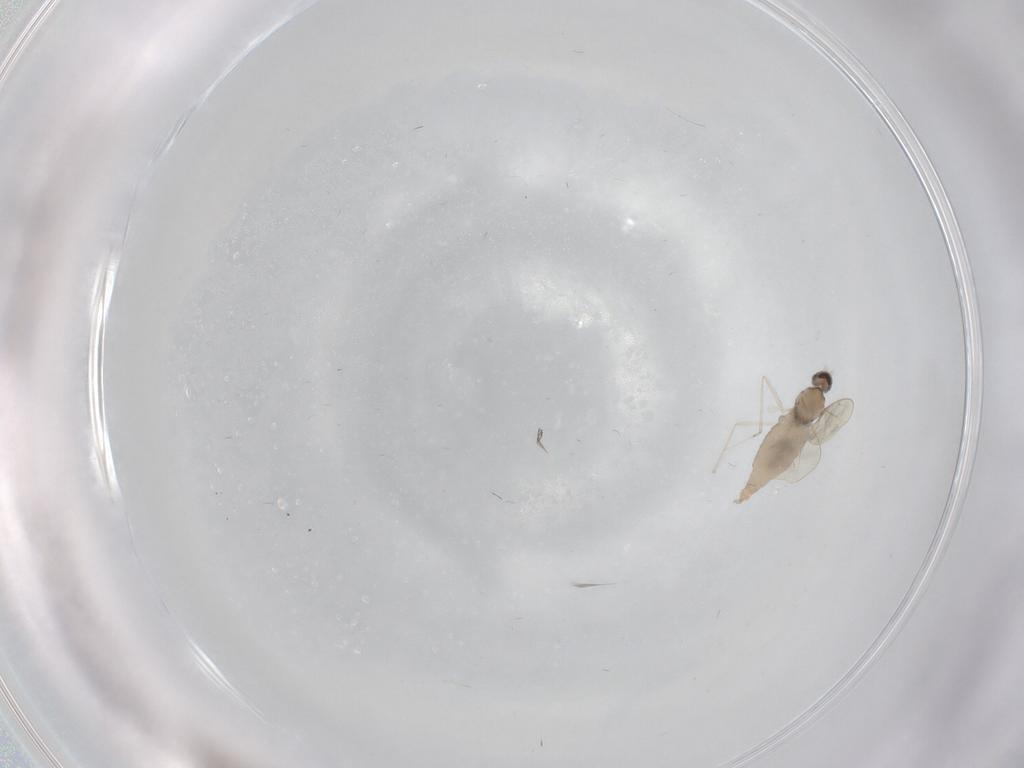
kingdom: Animalia
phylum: Arthropoda
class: Insecta
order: Diptera
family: Cecidomyiidae
